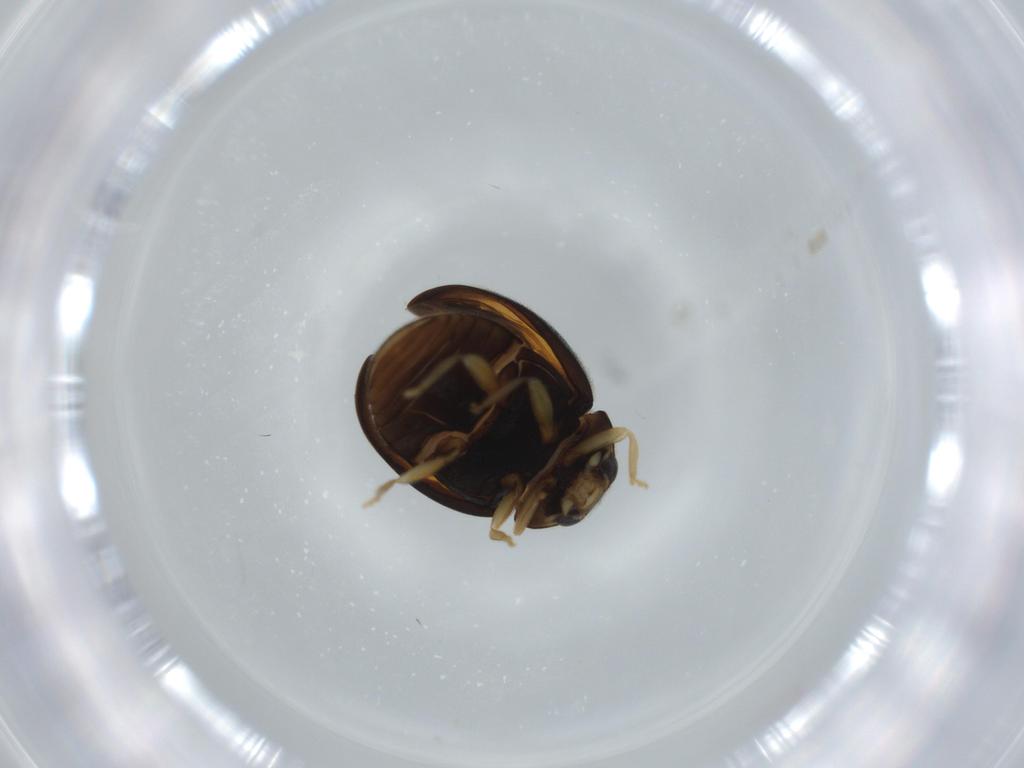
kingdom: Animalia
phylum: Arthropoda
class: Insecta
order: Coleoptera
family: Coccinellidae
